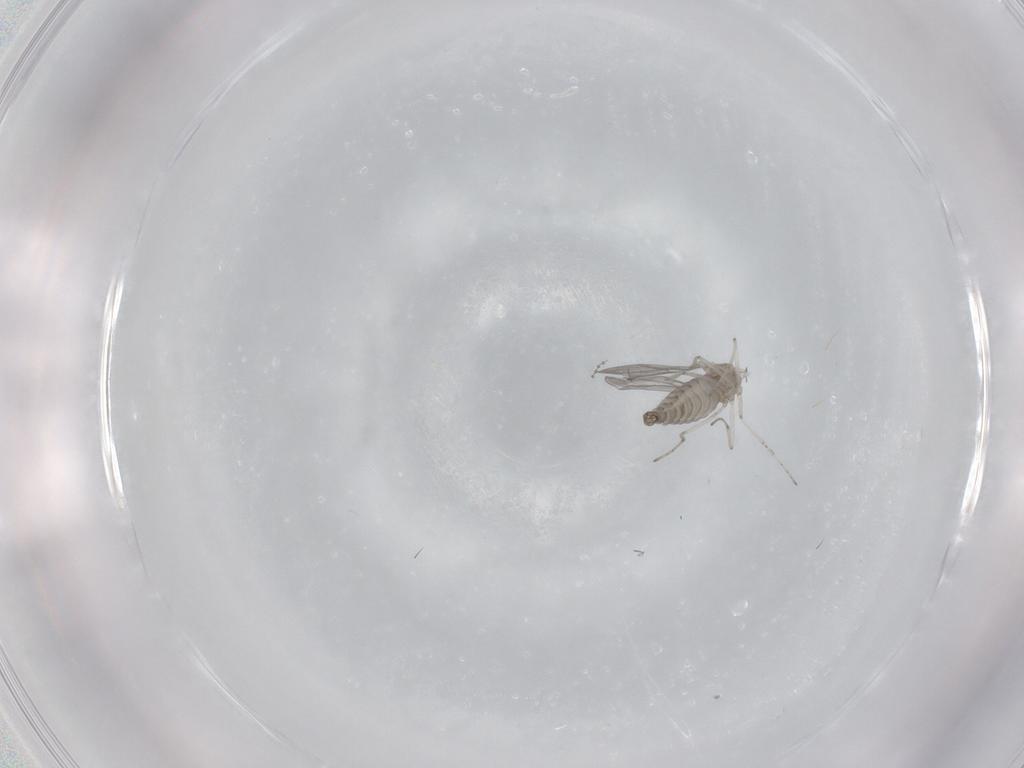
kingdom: Animalia
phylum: Arthropoda
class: Insecta
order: Diptera
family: Cecidomyiidae
